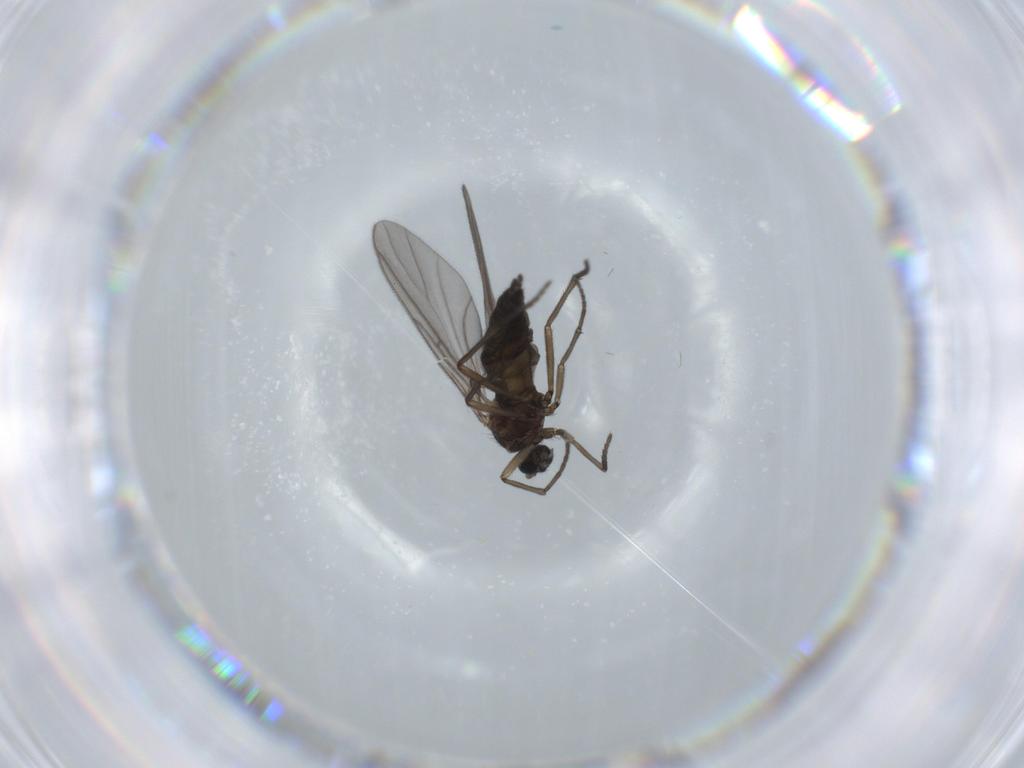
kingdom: Animalia
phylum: Arthropoda
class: Insecta
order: Diptera
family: Sciaridae
